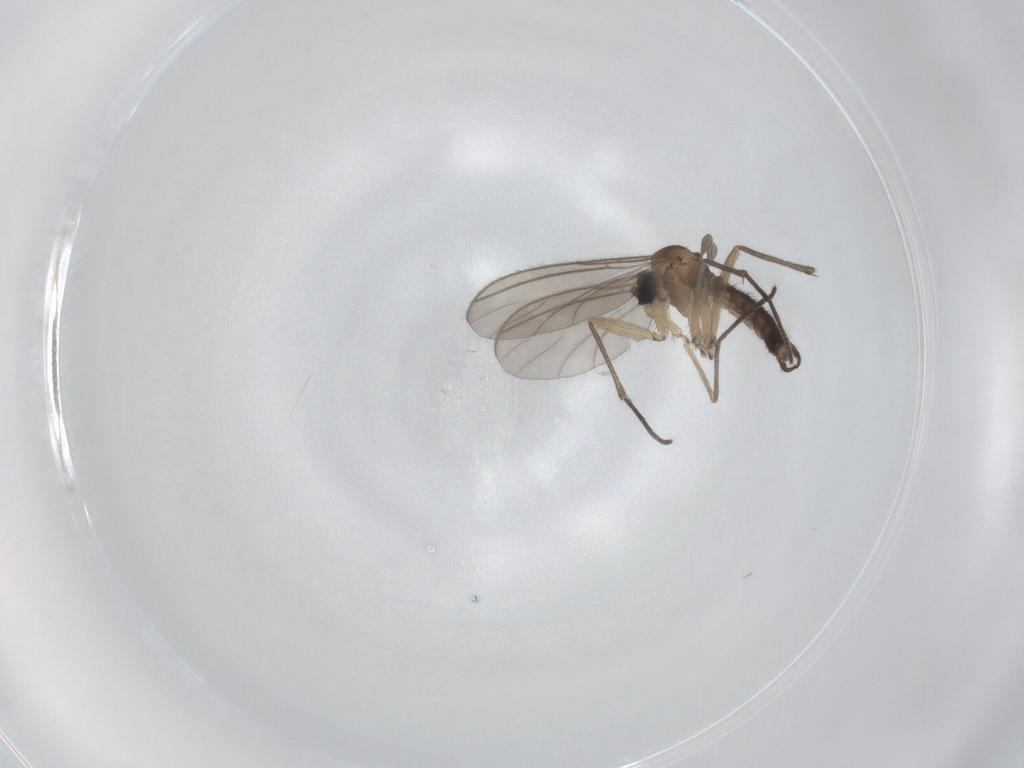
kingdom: Animalia
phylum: Arthropoda
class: Insecta
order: Diptera
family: Sciaridae
